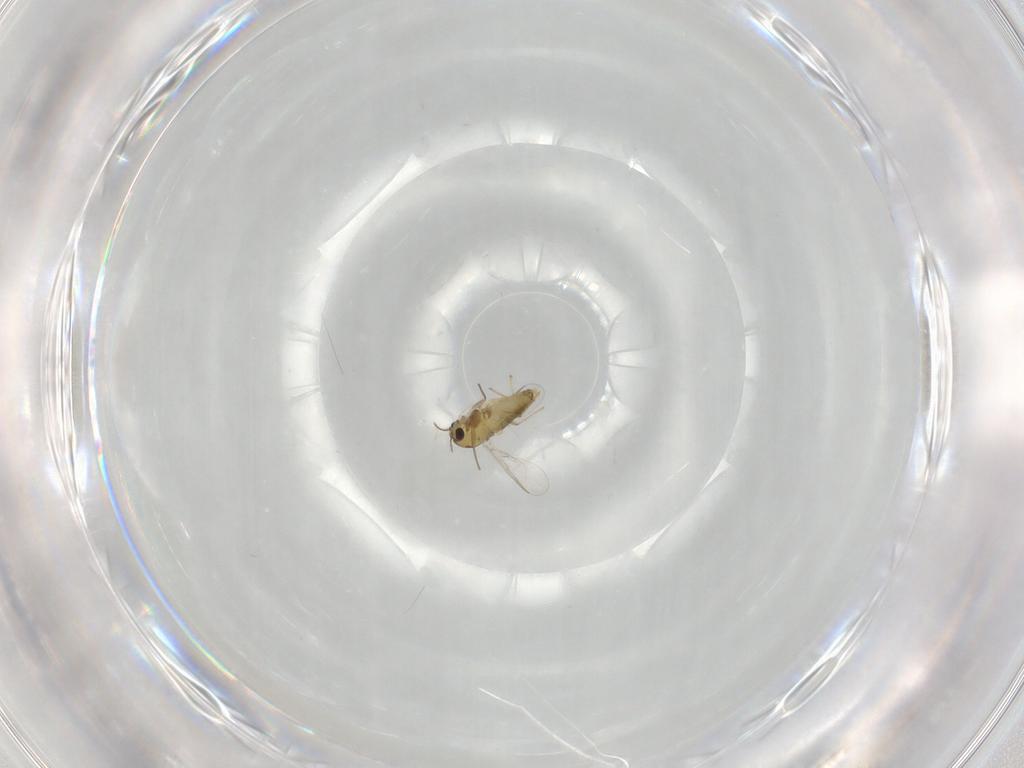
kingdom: Animalia
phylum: Arthropoda
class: Insecta
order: Diptera
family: Chironomidae
